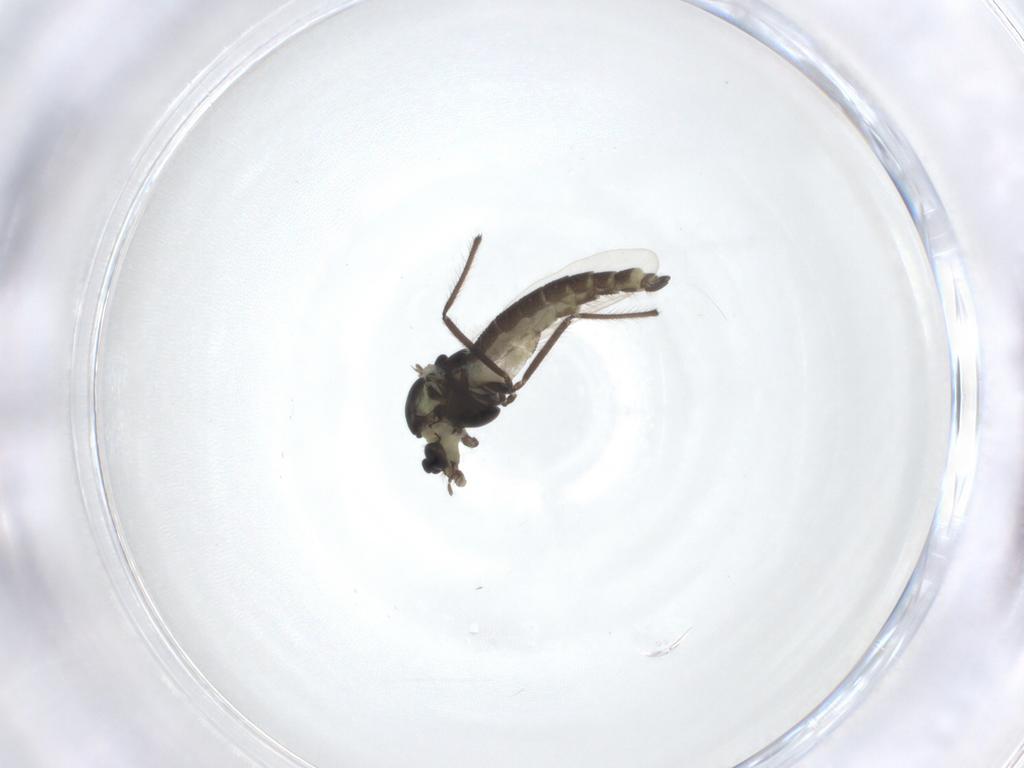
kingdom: Animalia
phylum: Arthropoda
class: Insecta
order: Diptera
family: Chironomidae
